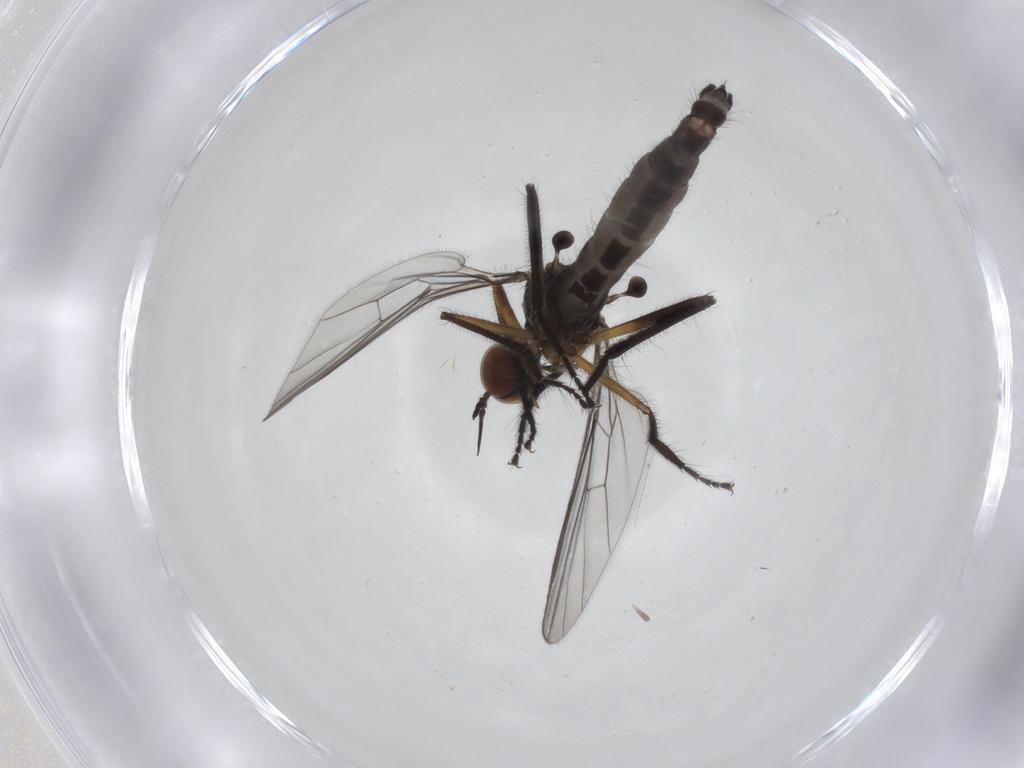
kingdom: Animalia
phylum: Arthropoda
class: Insecta
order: Diptera
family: Empididae
